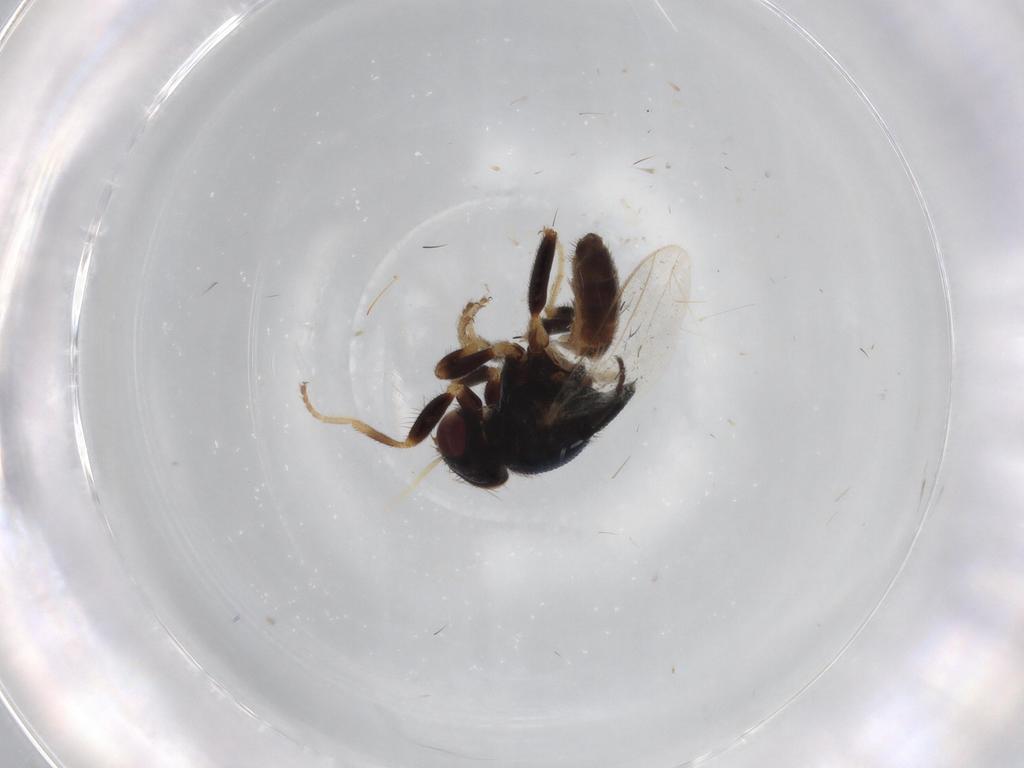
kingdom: Animalia
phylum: Arthropoda
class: Insecta
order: Diptera
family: Chloropidae
